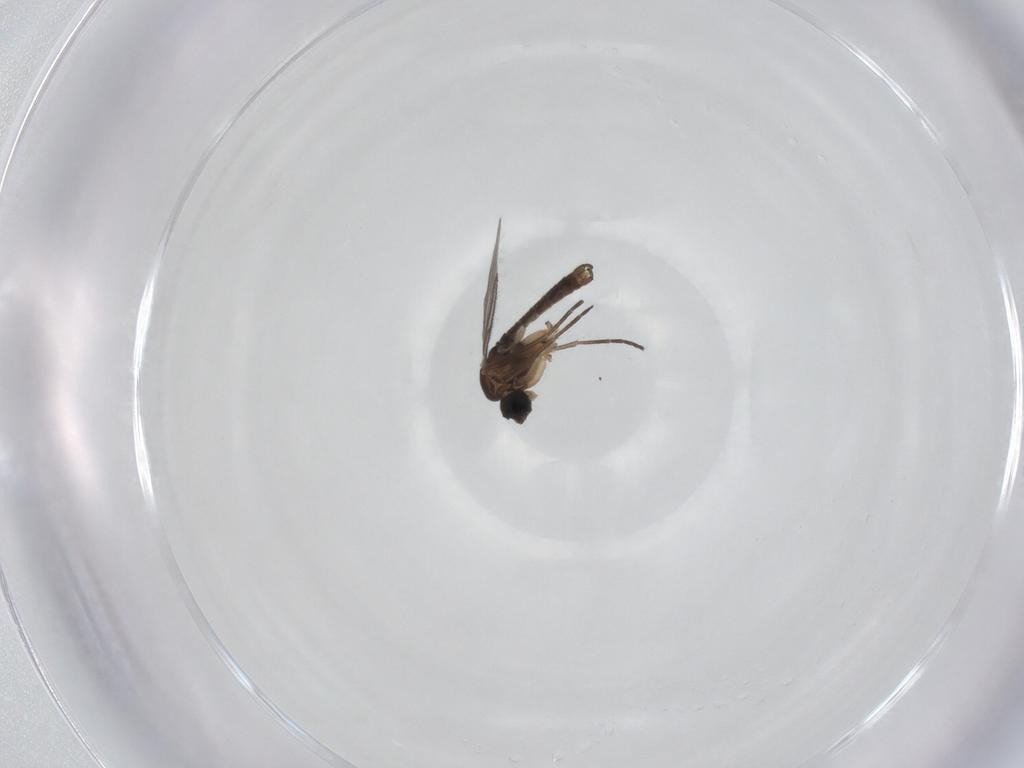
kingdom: Animalia
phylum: Arthropoda
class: Insecta
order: Diptera
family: Sciaridae
